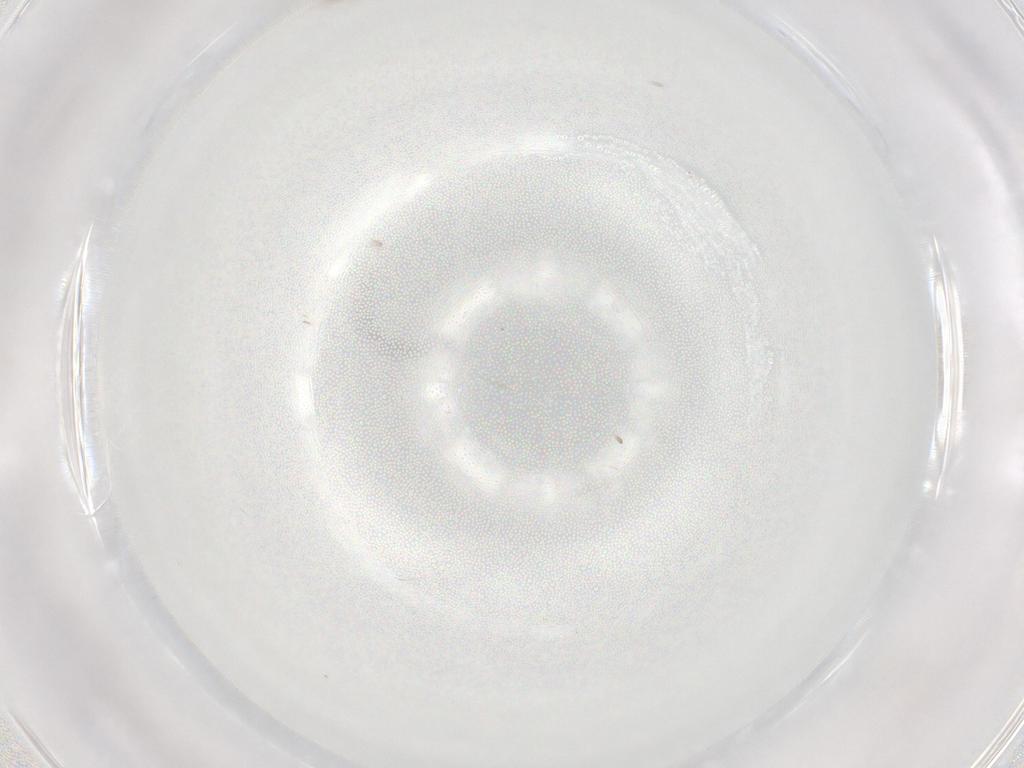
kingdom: Animalia
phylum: Arthropoda
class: Insecta
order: Diptera
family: Chironomidae
